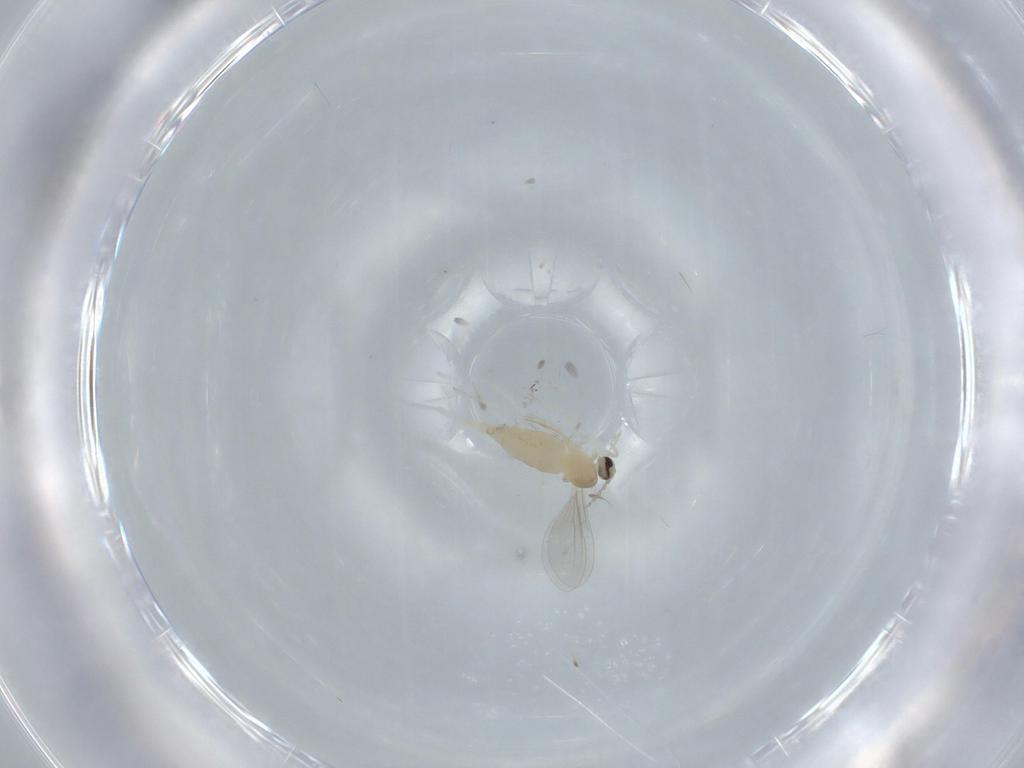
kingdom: Animalia
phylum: Arthropoda
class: Insecta
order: Diptera
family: Cecidomyiidae
